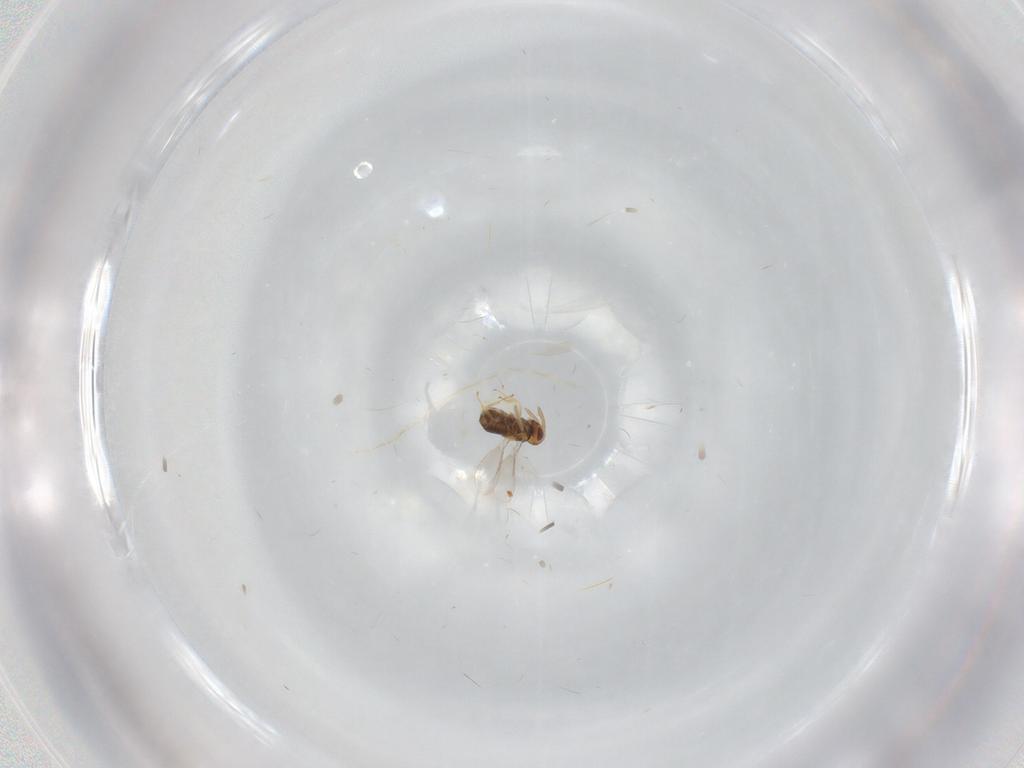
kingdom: Animalia
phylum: Arthropoda
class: Insecta
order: Hymenoptera
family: Aphelinidae
